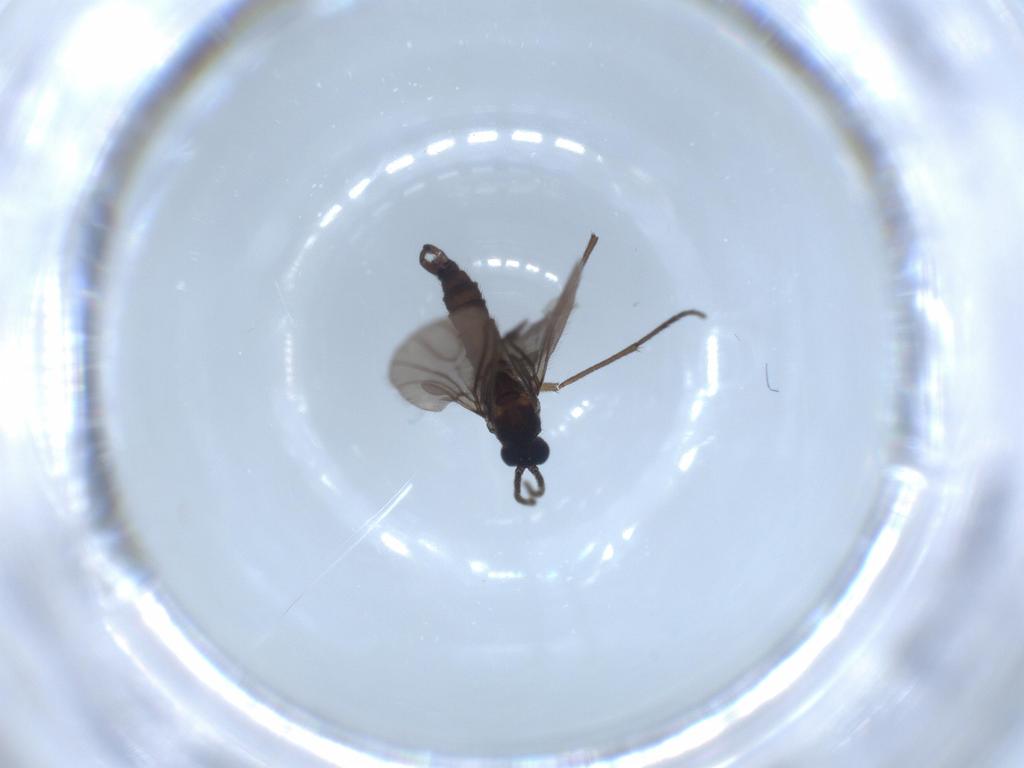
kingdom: Animalia
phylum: Arthropoda
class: Insecta
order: Diptera
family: Sciaridae
